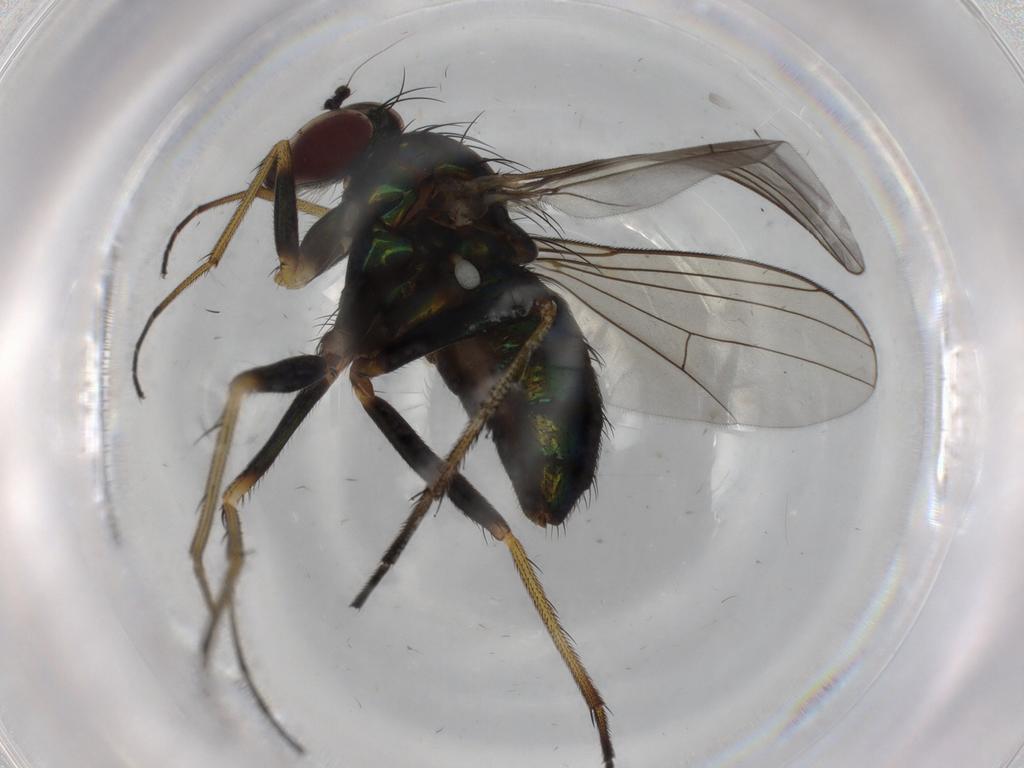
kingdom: Animalia
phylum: Arthropoda
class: Insecta
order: Diptera
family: Dolichopodidae
